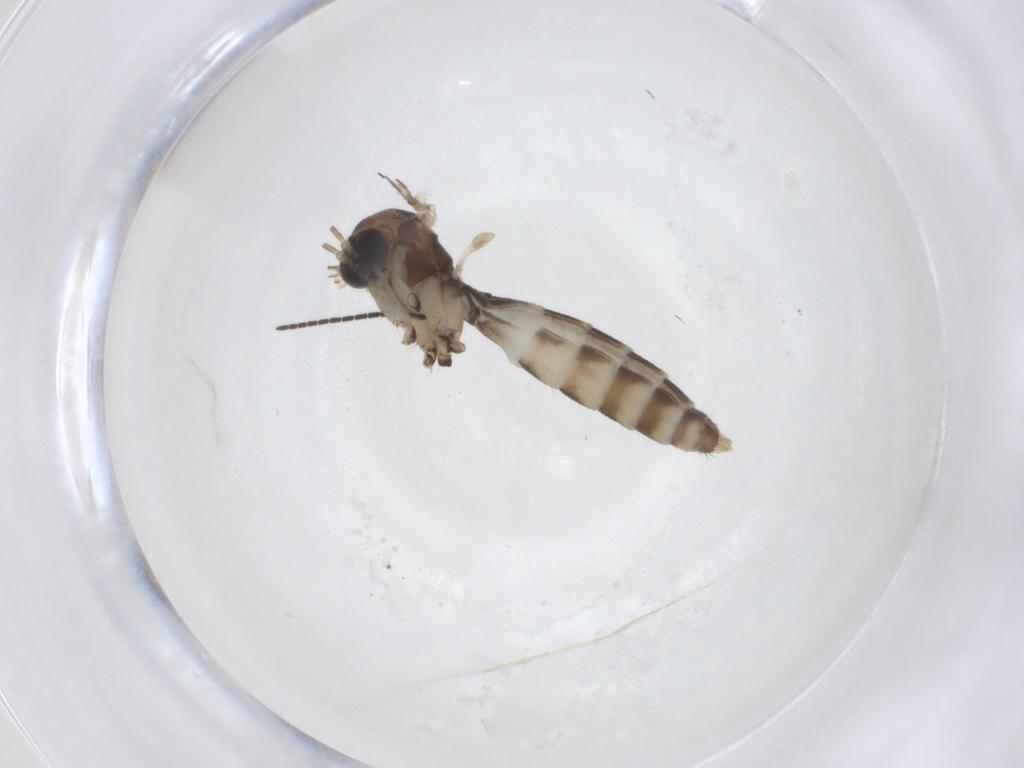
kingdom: Animalia
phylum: Arthropoda
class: Insecta
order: Diptera
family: Mycetophilidae
